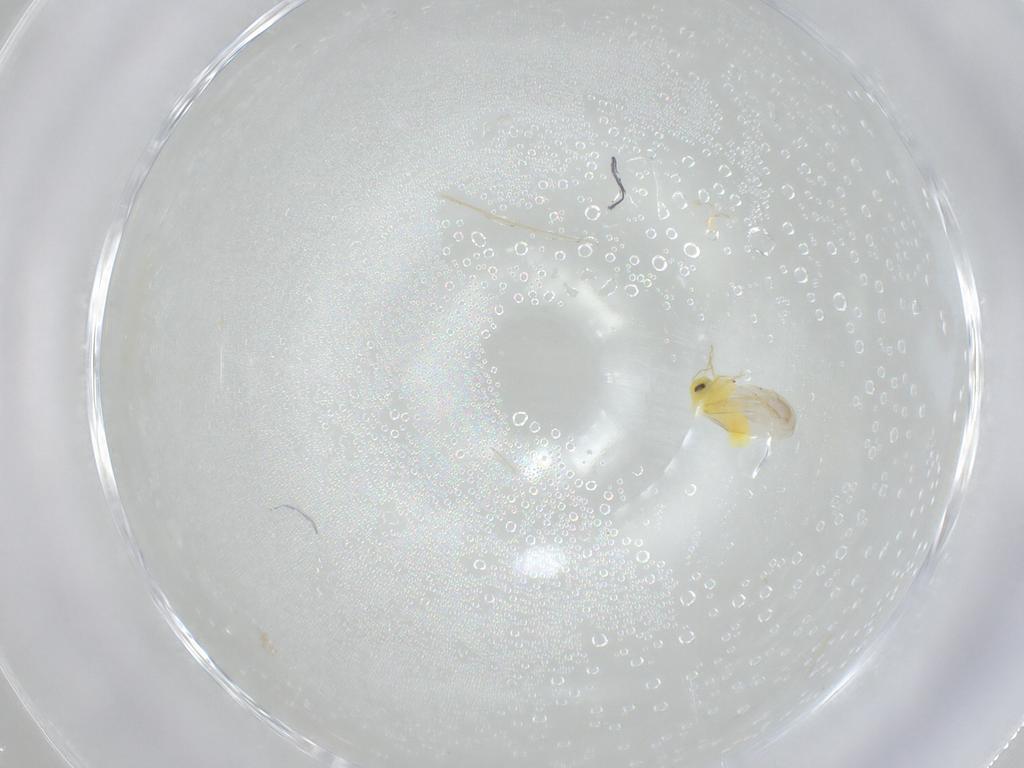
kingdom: Animalia
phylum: Arthropoda
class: Insecta
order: Hemiptera
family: Aleyrodidae
